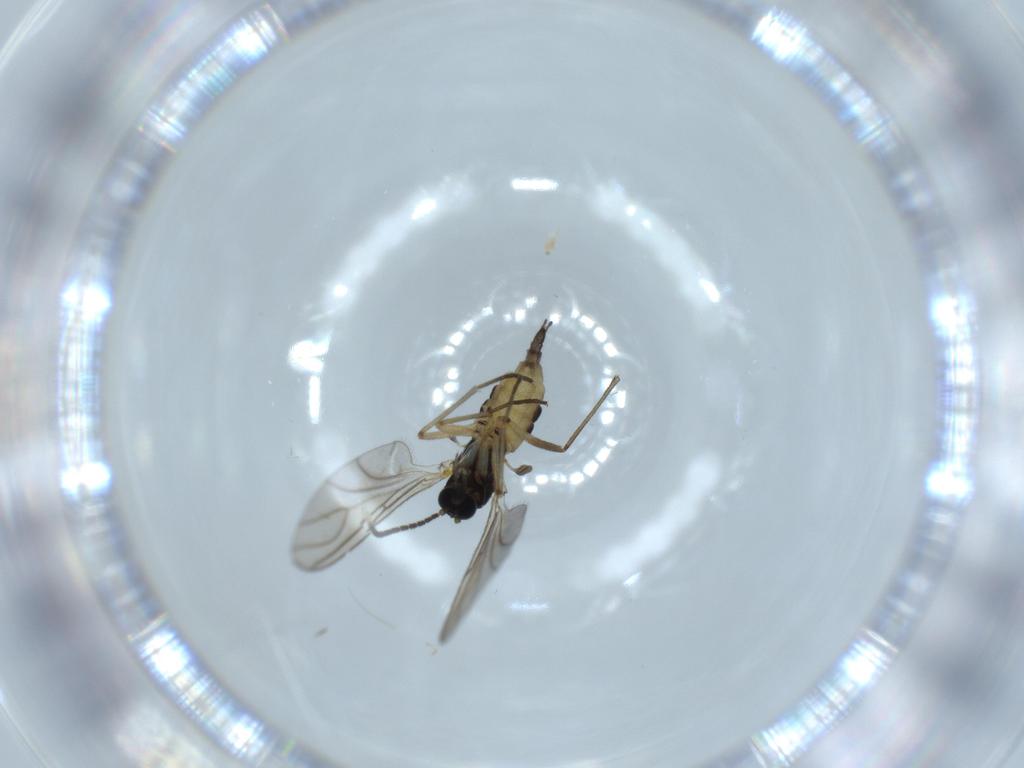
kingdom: Animalia
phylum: Arthropoda
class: Insecta
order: Diptera
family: Sciaridae
